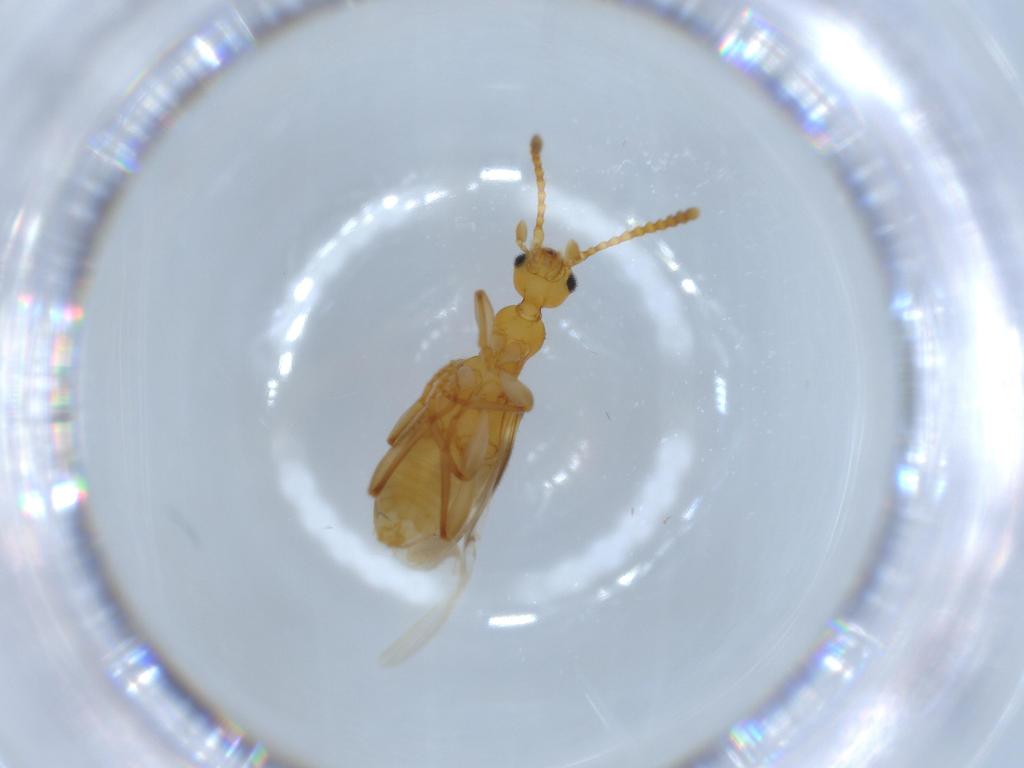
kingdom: Animalia
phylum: Arthropoda
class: Insecta
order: Coleoptera
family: Anthicidae
